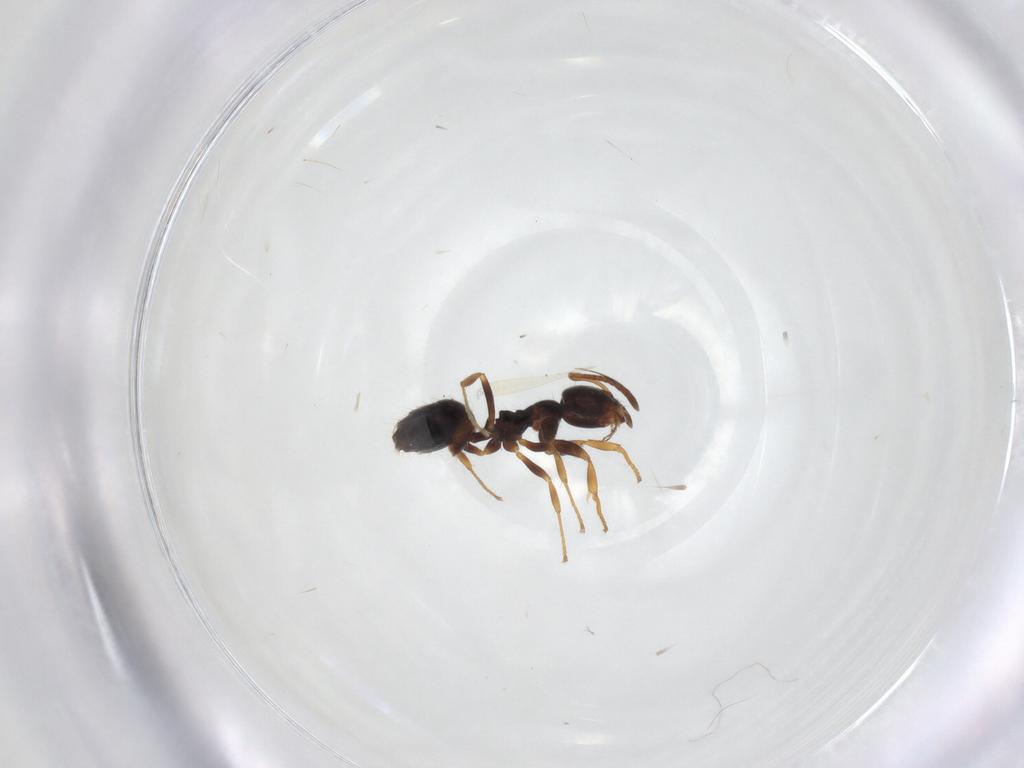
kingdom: Animalia
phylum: Arthropoda
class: Insecta
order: Hymenoptera
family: Formicidae
